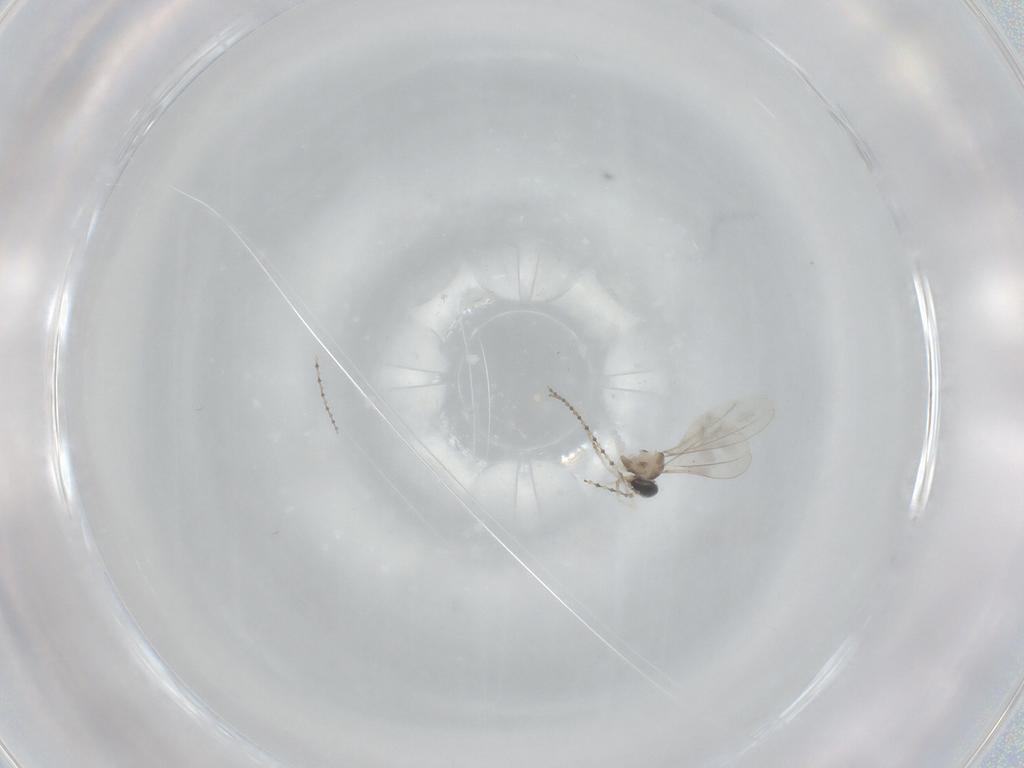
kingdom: Animalia
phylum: Arthropoda
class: Insecta
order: Diptera
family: Cecidomyiidae
